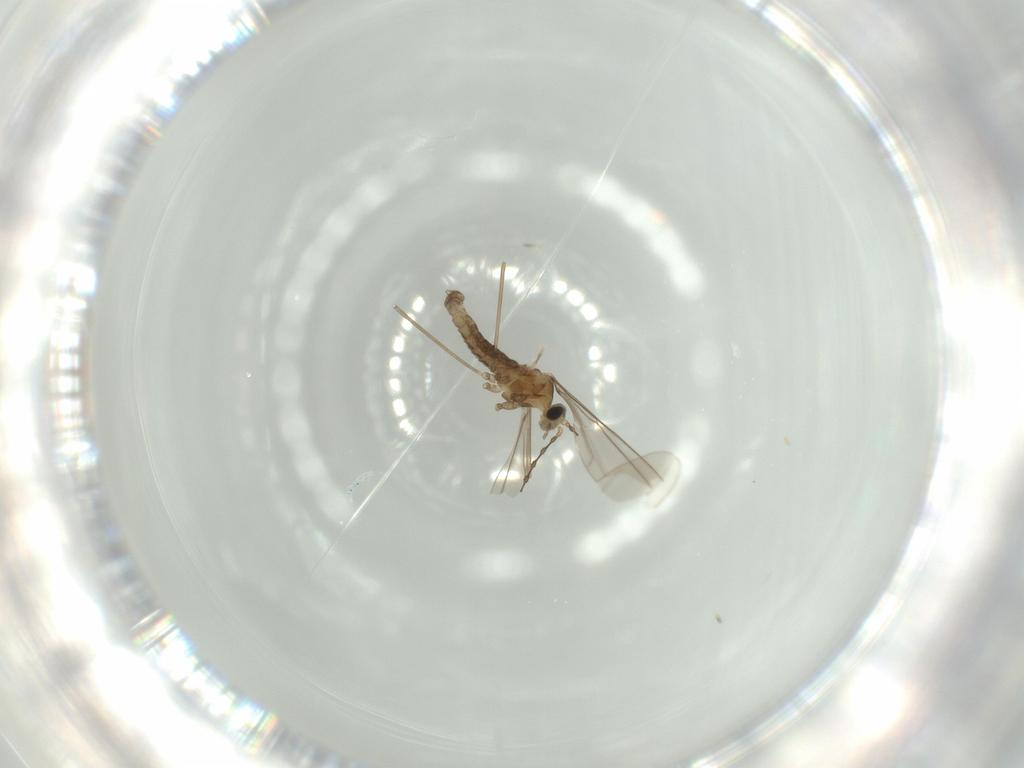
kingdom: Animalia
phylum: Arthropoda
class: Insecta
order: Diptera
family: Cecidomyiidae
